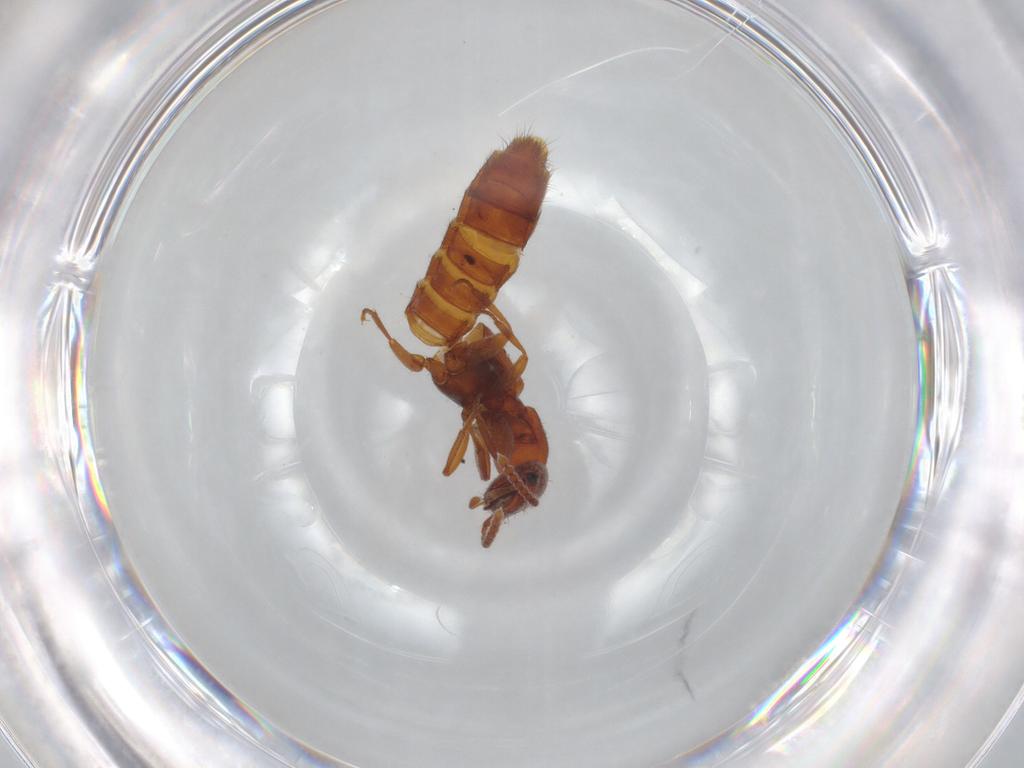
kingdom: Animalia
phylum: Arthropoda
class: Insecta
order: Coleoptera
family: Staphylinidae
